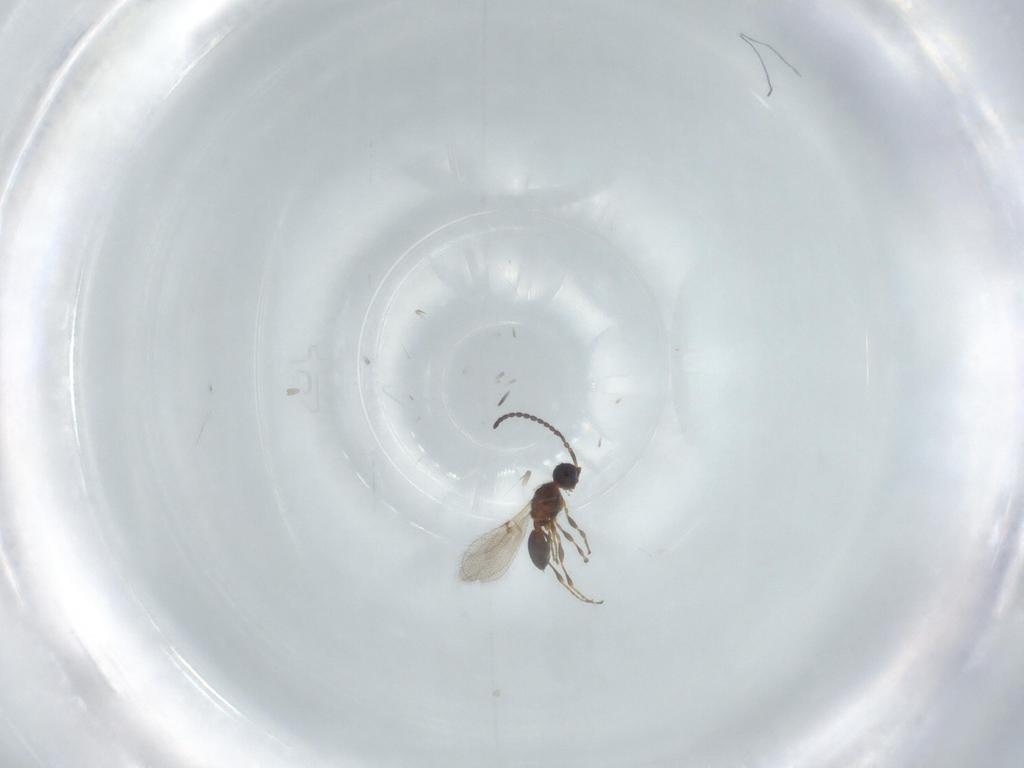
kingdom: Animalia
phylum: Arthropoda
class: Insecta
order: Hymenoptera
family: Diapriidae
